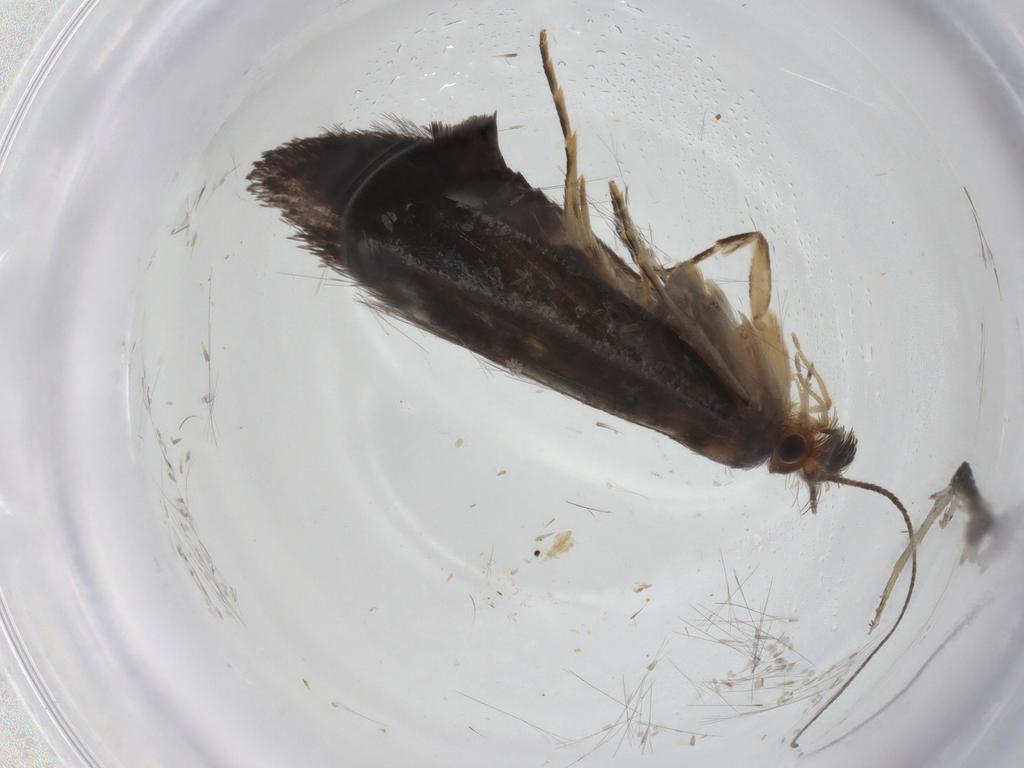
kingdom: Animalia
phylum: Arthropoda
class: Insecta
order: Lepidoptera
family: Tineidae
